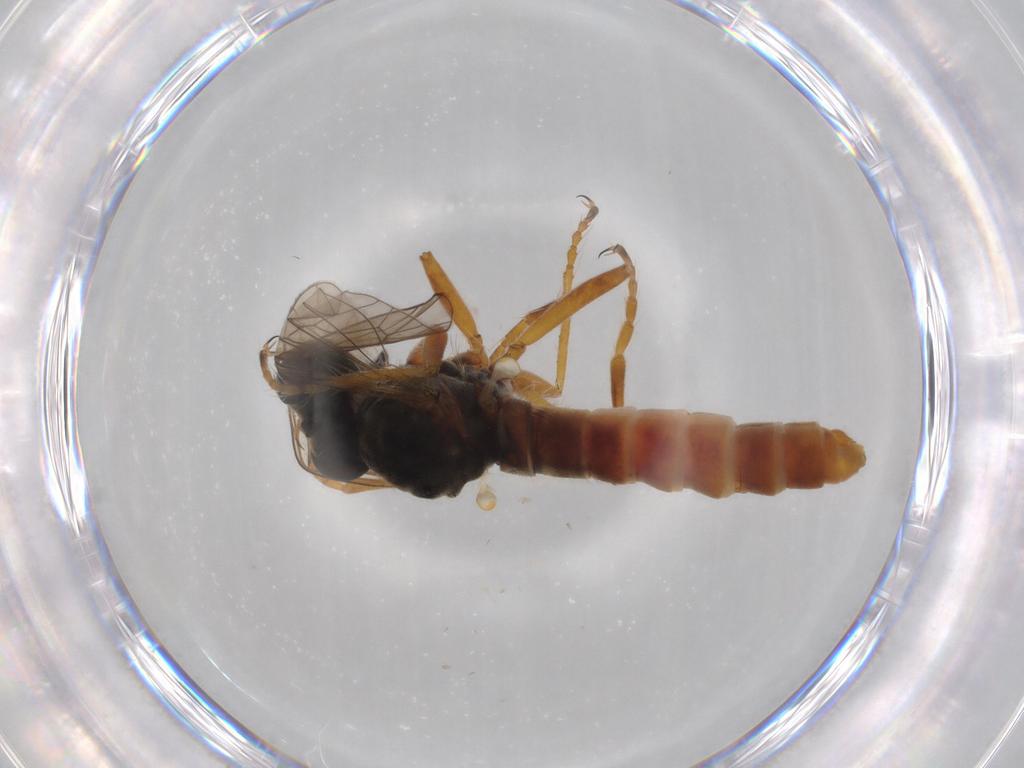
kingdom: Animalia
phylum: Arthropoda
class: Insecta
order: Diptera
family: Asilidae
